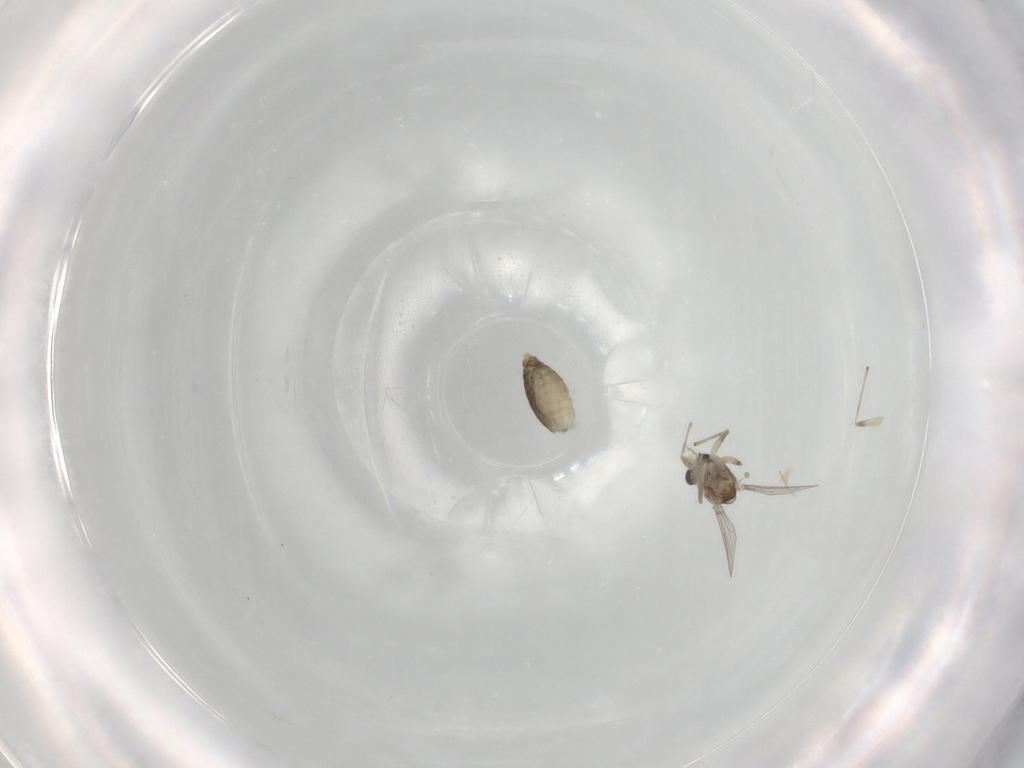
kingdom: Animalia
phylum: Arthropoda
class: Insecta
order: Diptera
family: Chironomidae
